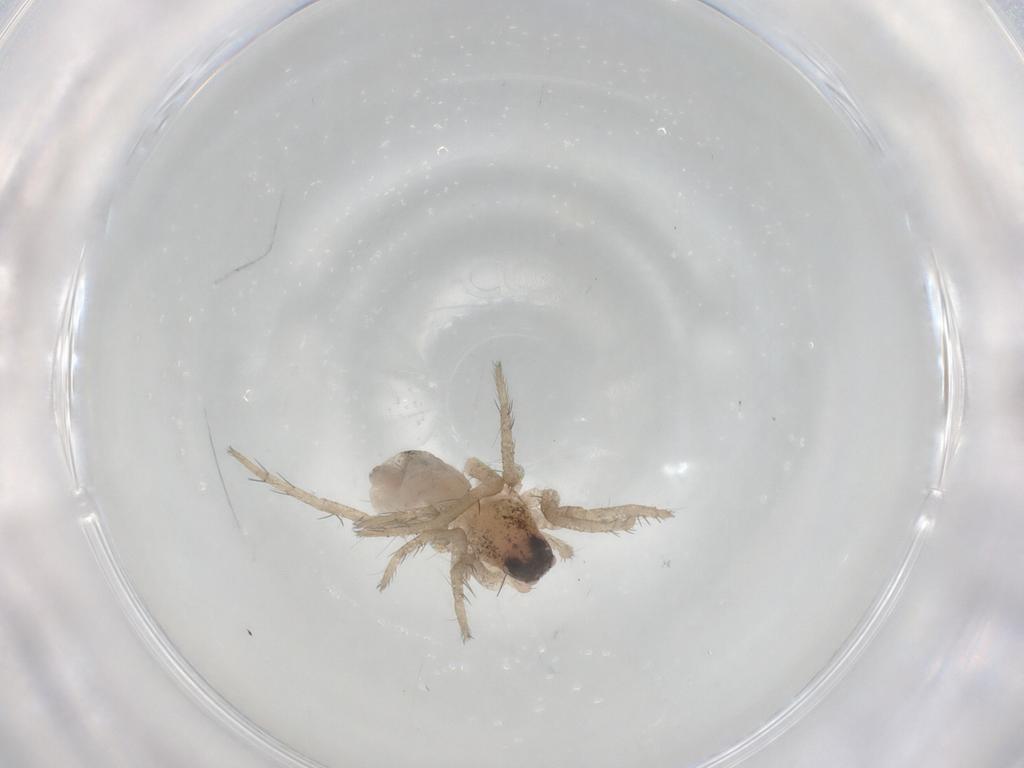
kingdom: Animalia
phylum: Arthropoda
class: Arachnida
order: Araneae
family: Lycosidae
